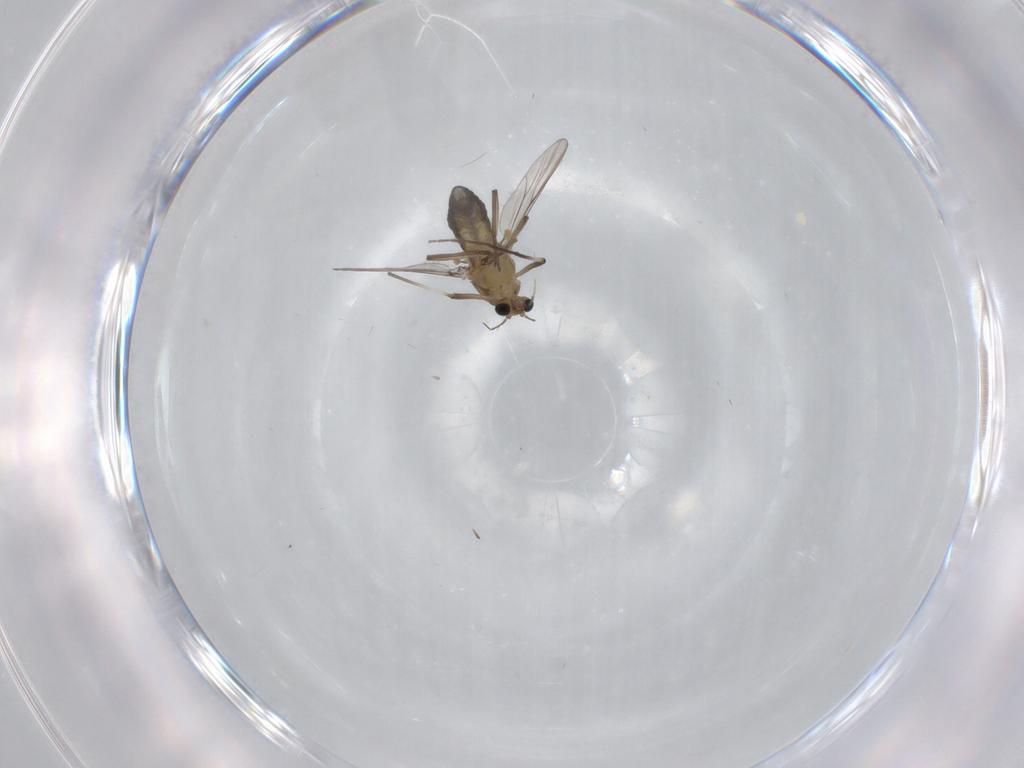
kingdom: Animalia
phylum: Arthropoda
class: Insecta
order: Diptera
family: Chironomidae
